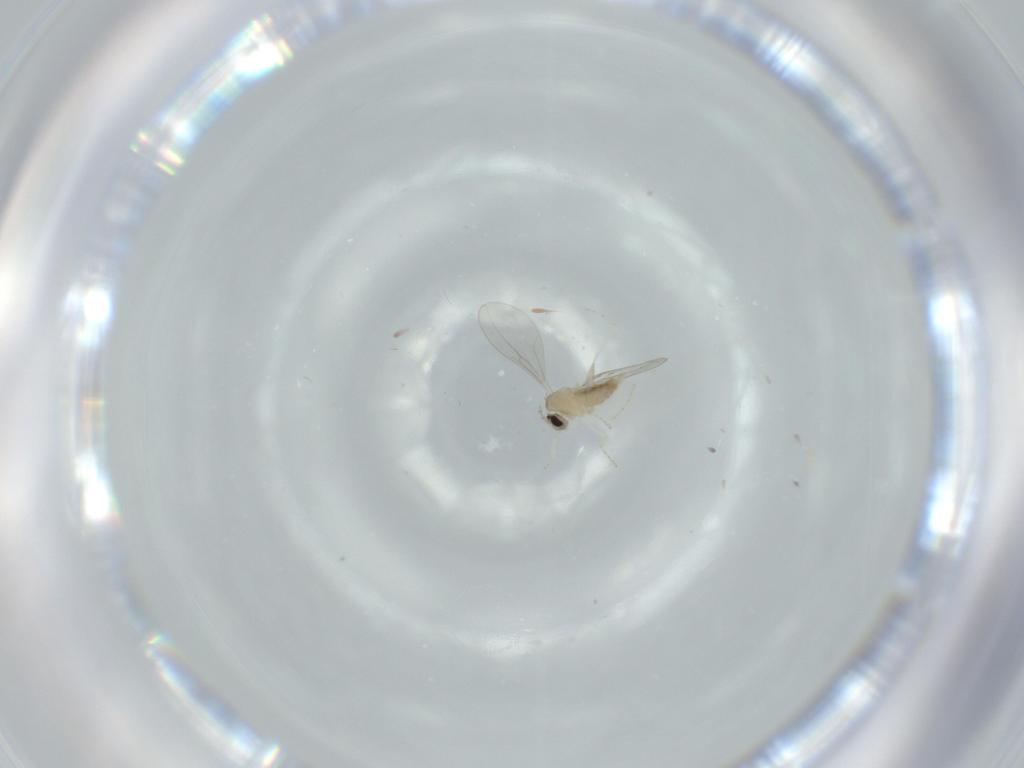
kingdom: Animalia
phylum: Arthropoda
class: Insecta
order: Diptera
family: Cecidomyiidae
